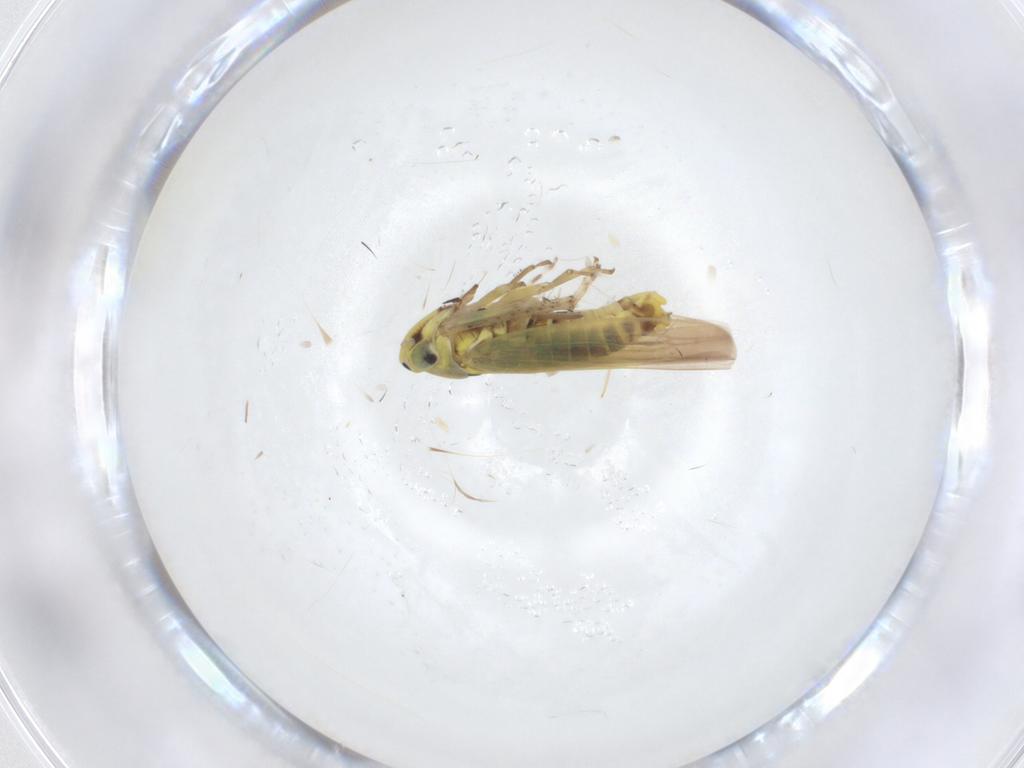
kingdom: Animalia
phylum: Arthropoda
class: Insecta
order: Hemiptera
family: Cicadellidae
